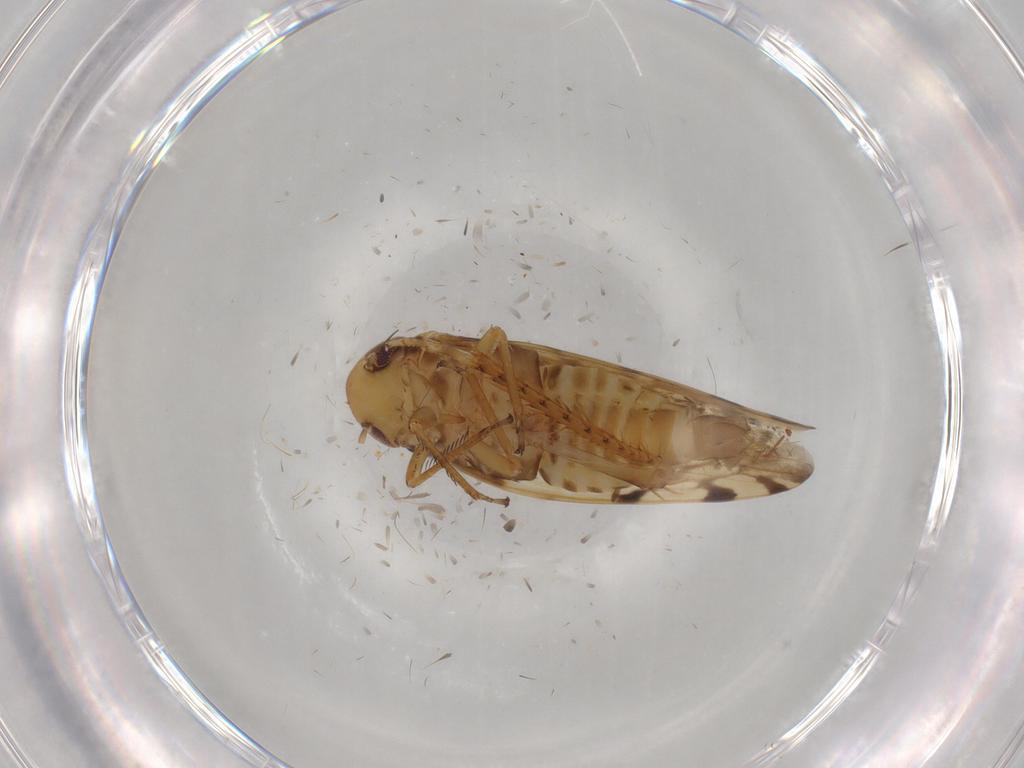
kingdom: Animalia
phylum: Arthropoda
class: Insecta
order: Hemiptera
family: Cicadellidae
